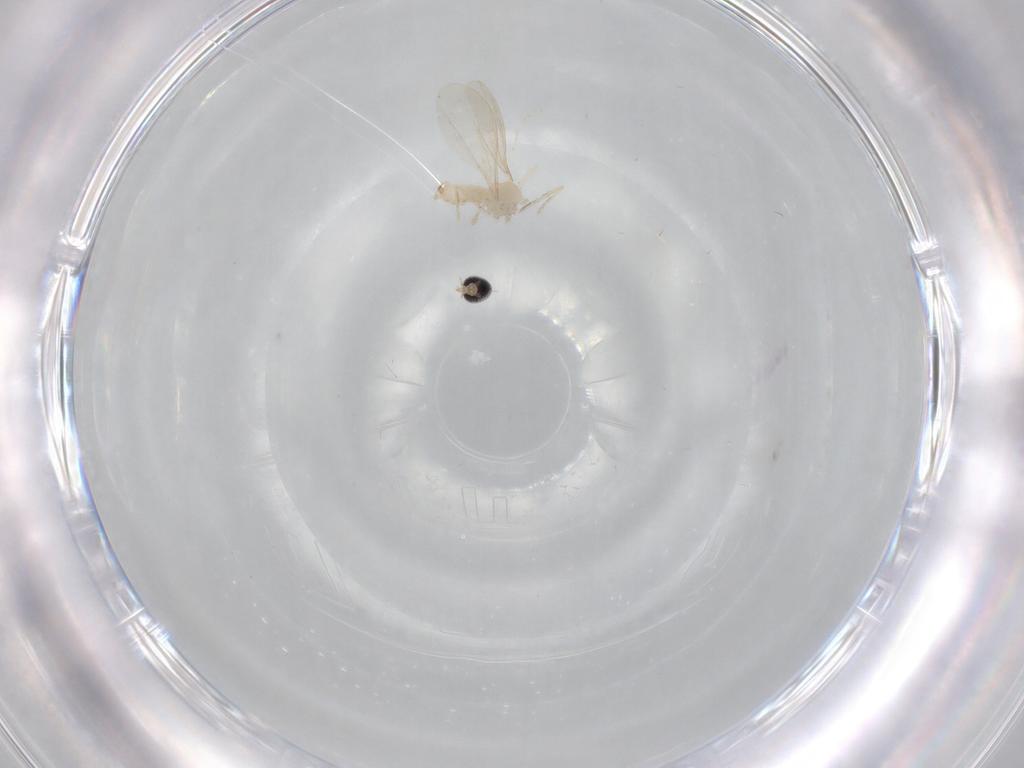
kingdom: Animalia
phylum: Arthropoda
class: Insecta
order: Diptera
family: Cecidomyiidae
